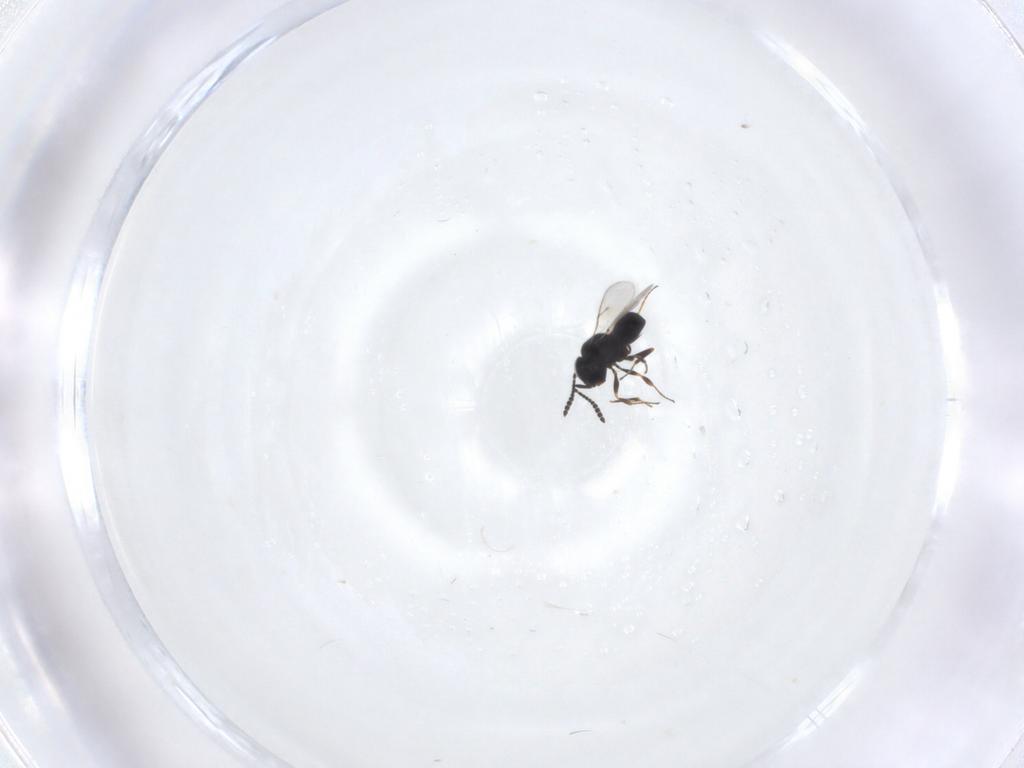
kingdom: Animalia
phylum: Arthropoda
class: Insecta
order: Hymenoptera
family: Scelionidae
